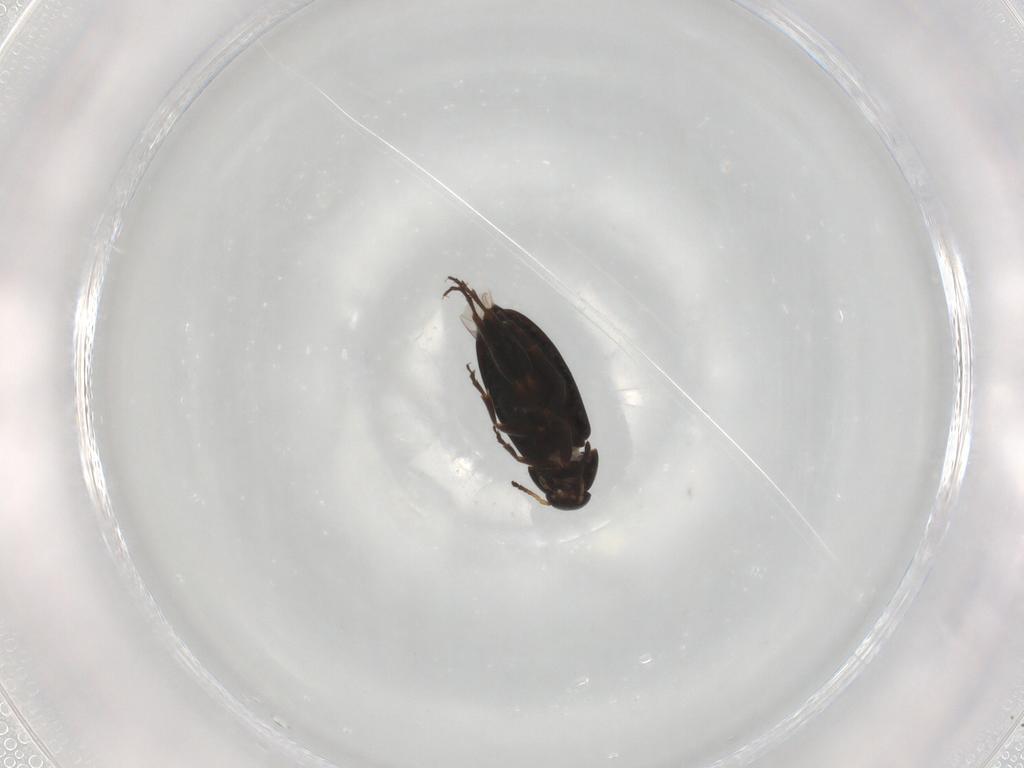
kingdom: Animalia
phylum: Arthropoda
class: Insecta
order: Coleoptera
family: Scraptiidae
